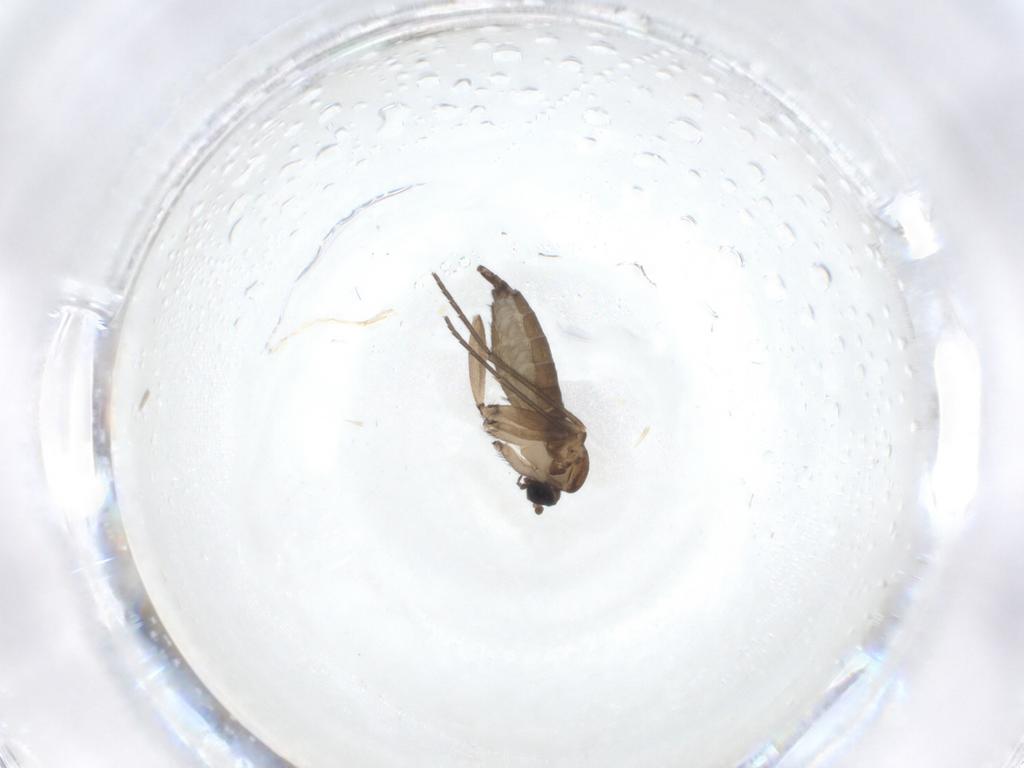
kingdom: Animalia
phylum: Arthropoda
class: Insecta
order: Diptera
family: Sciaridae
